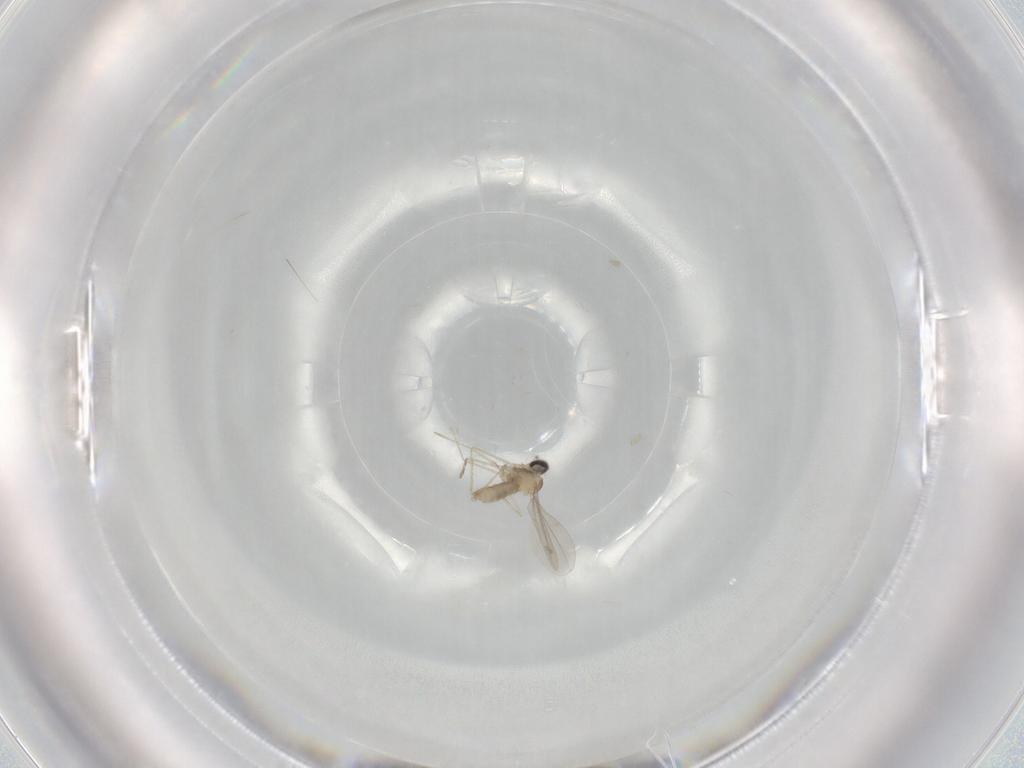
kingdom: Animalia
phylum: Arthropoda
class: Insecta
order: Diptera
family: Cecidomyiidae
